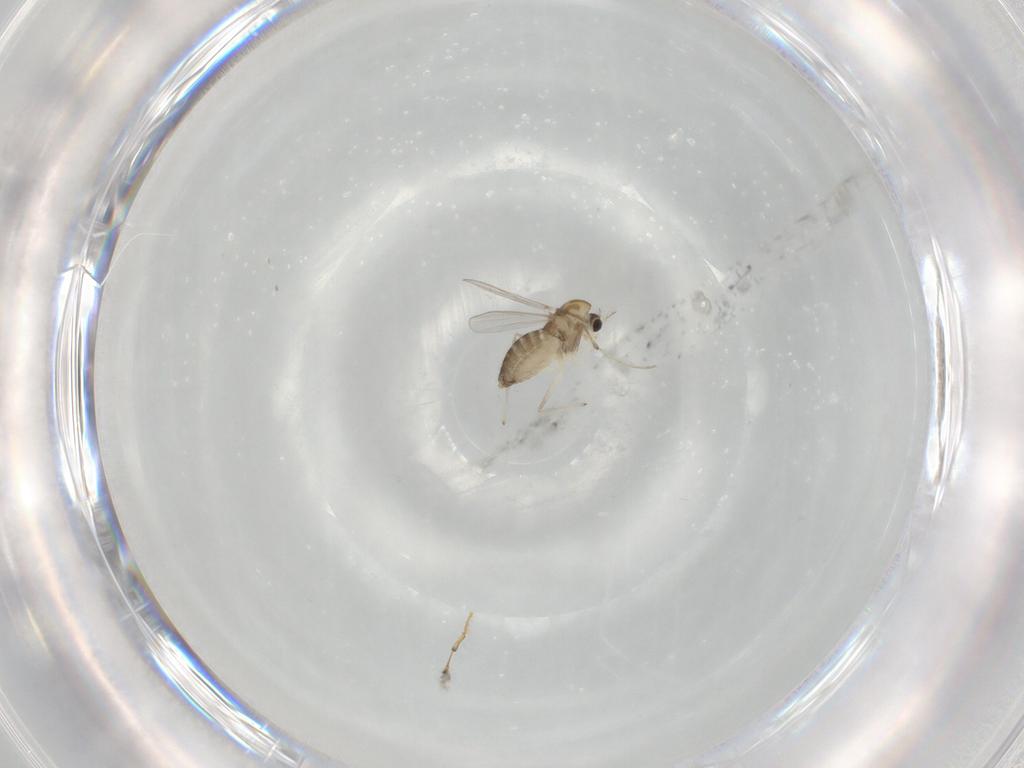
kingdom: Animalia
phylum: Arthropoda
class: Insecta
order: Diptera
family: Chironomidae
